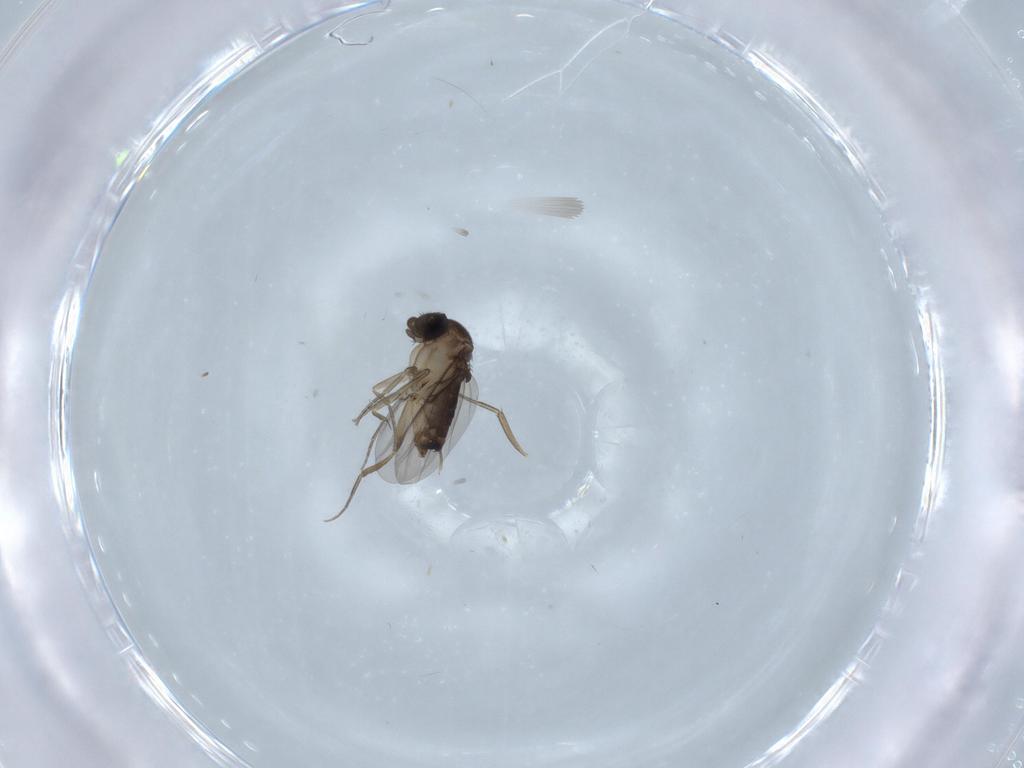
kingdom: Animalia
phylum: Arthropoda
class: Insecta
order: Diptera
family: Phoridae
